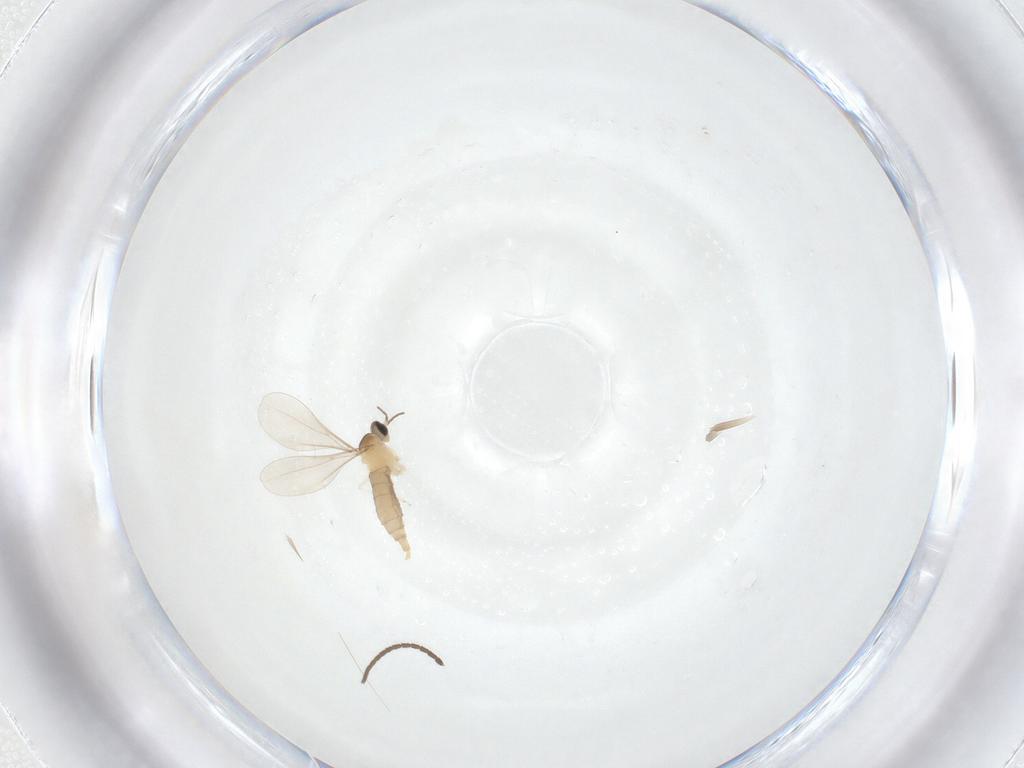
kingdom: Animalia
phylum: Arthropoda
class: Insecta
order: Diptera
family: Cecidomyiidae
